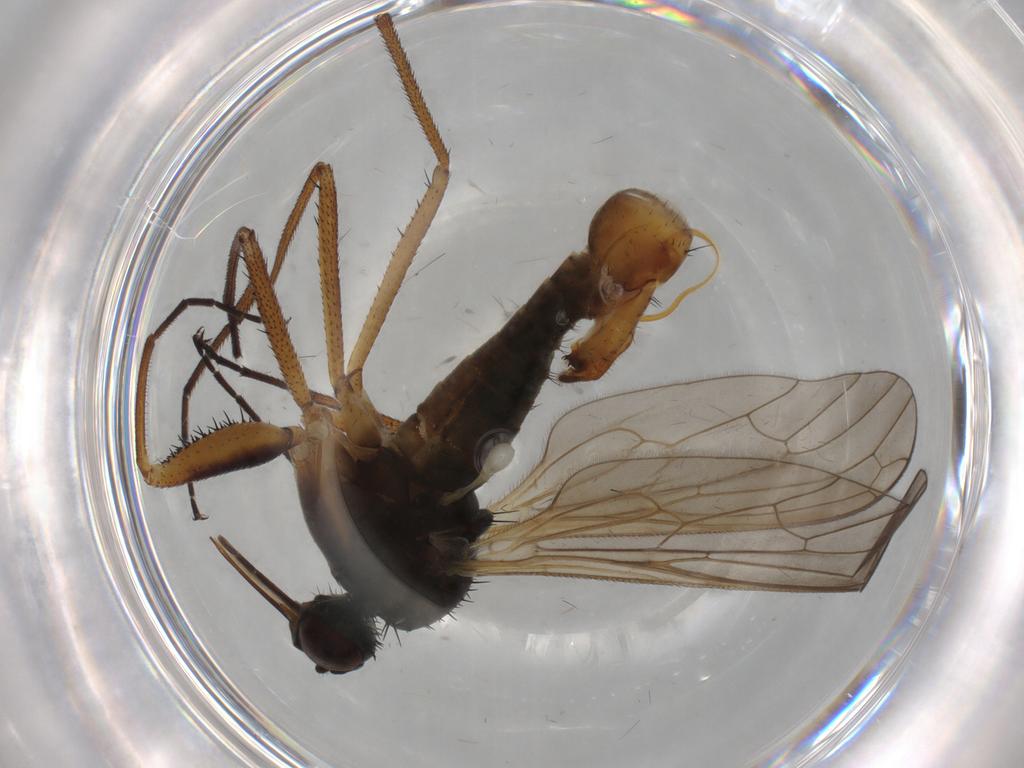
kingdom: Animalia
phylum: Arthropoda
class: Insecta
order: Diptera
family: Empididae
